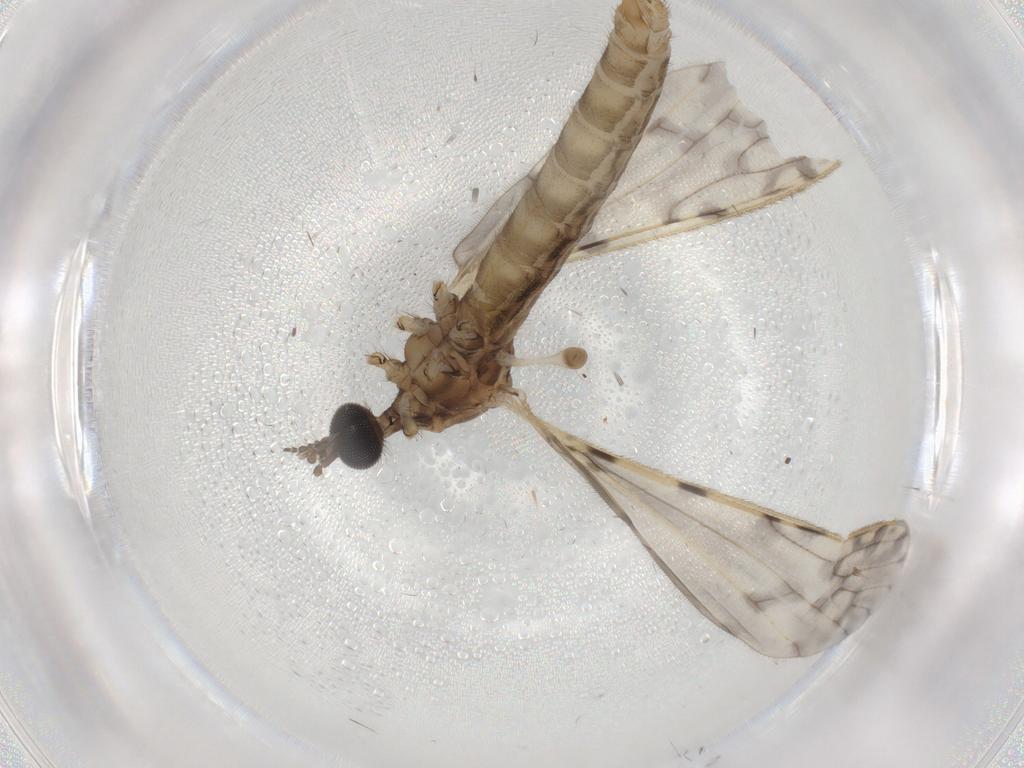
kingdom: Animalia
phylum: Arthropoda
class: Insecta
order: Diptera
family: Psychodidae
